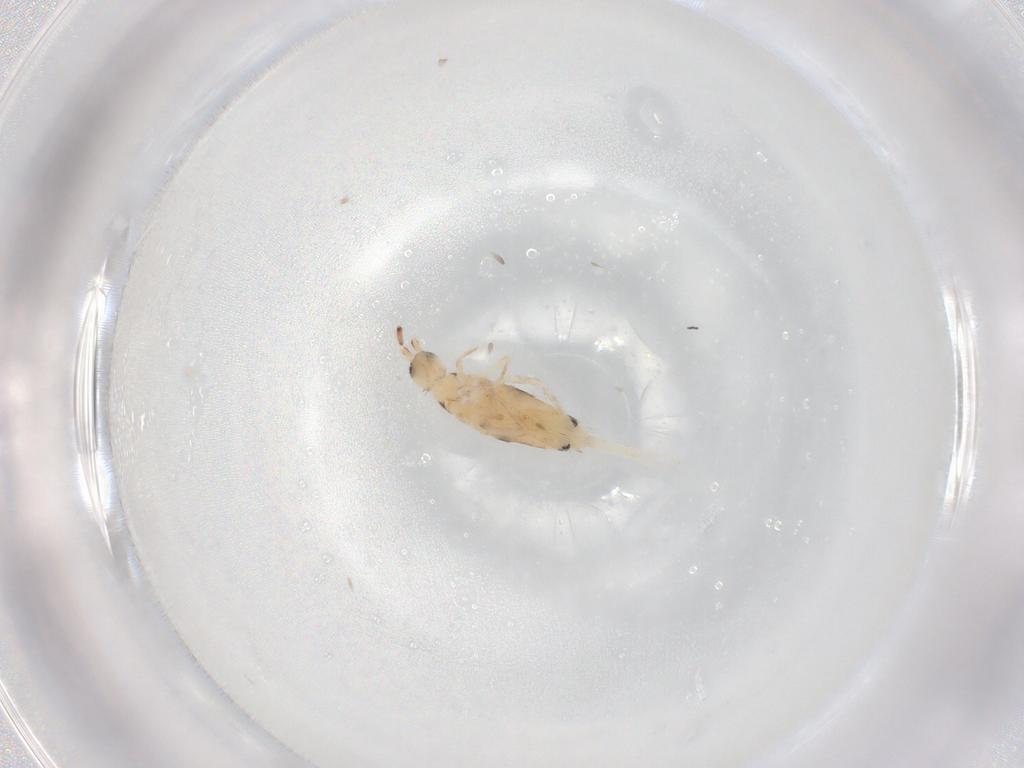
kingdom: Animalia
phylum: Arthropoda
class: Collembola
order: Entomobryomorpha
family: Entomobryidae
